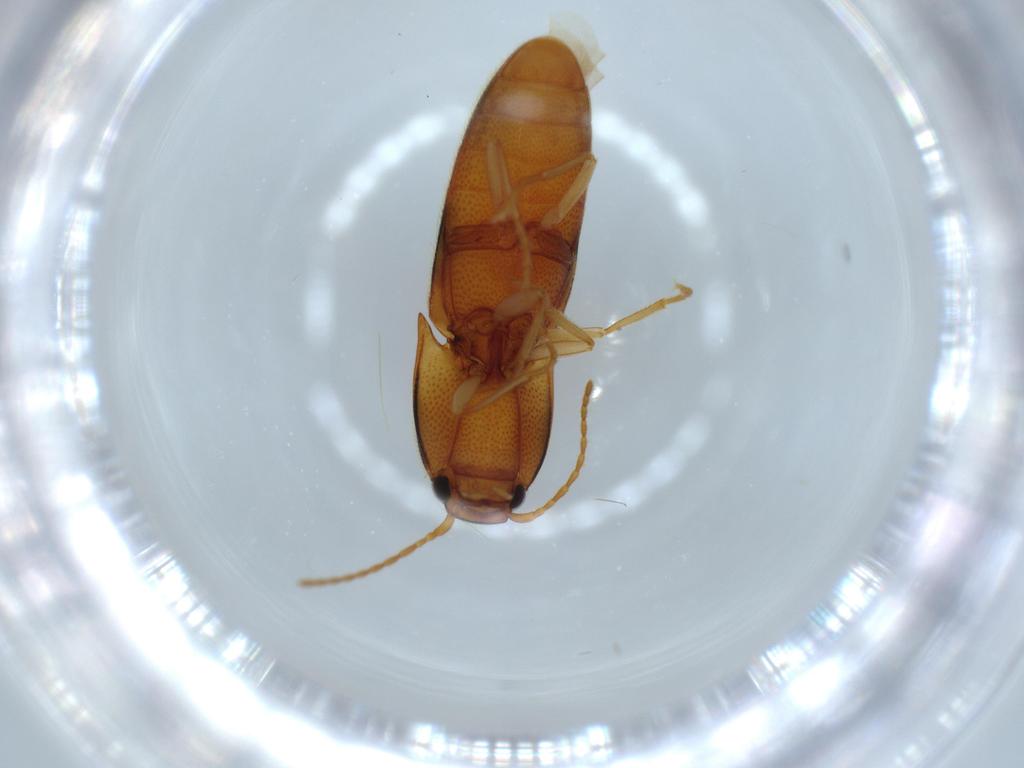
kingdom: Animalia
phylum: Arthropoda
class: Insecta
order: Coleoptera
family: Elateridae
